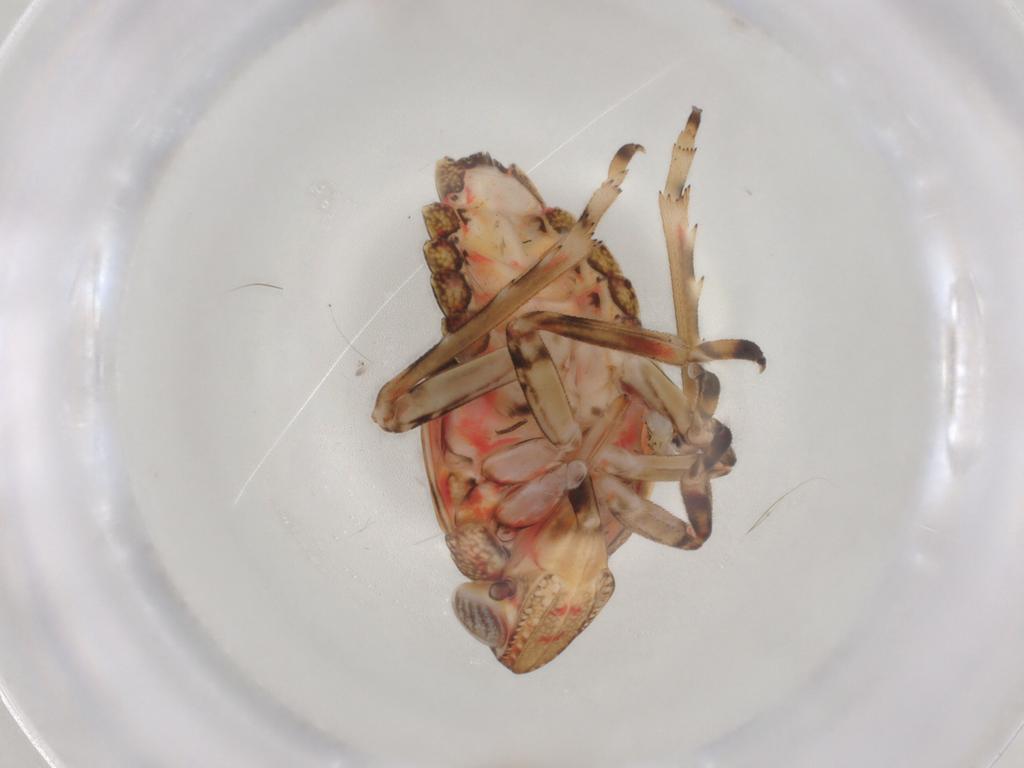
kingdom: Animalia
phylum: Arthropoda
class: Insecta
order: Hemiptera
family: Tropiduchidae
